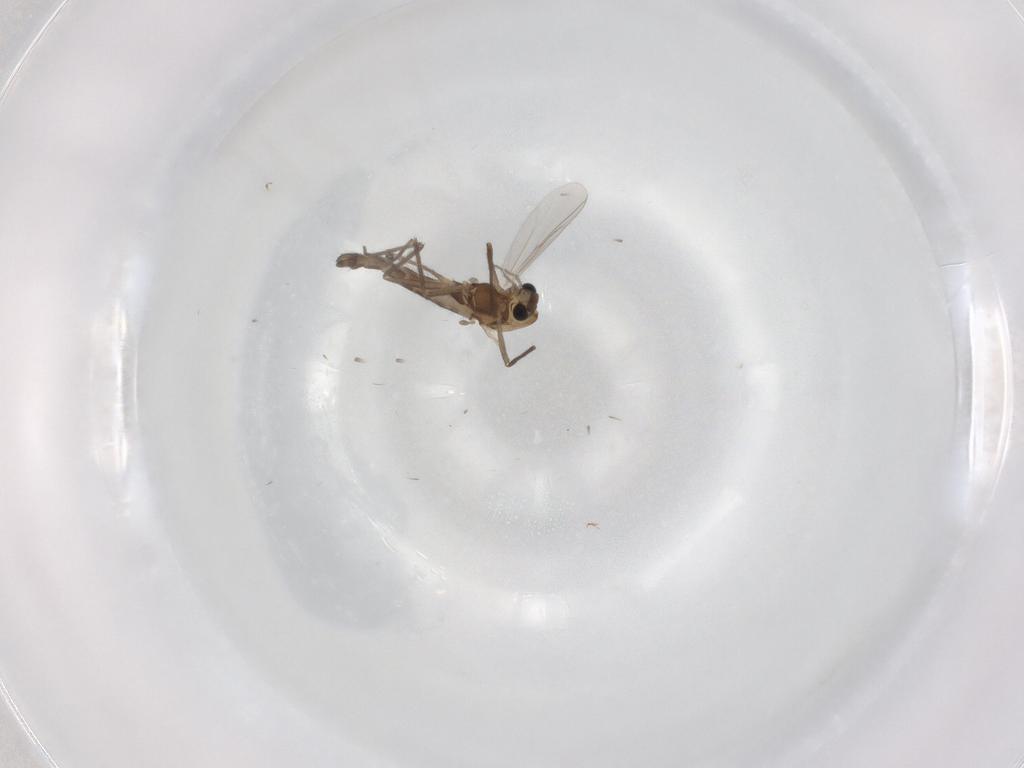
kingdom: Animalia
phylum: Arthropoda
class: Insecta
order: Diptera
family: Chironomidae
